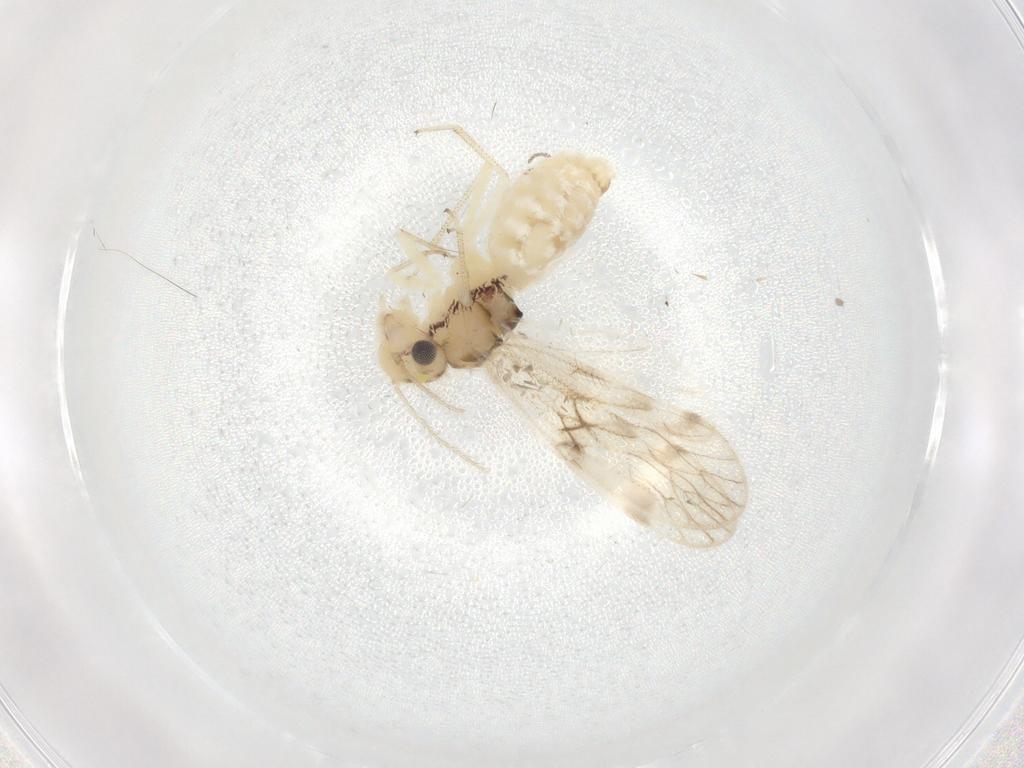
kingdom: Animalia
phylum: Arthropoda
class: Insecta
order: Psocodea
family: Caeciliusidae
